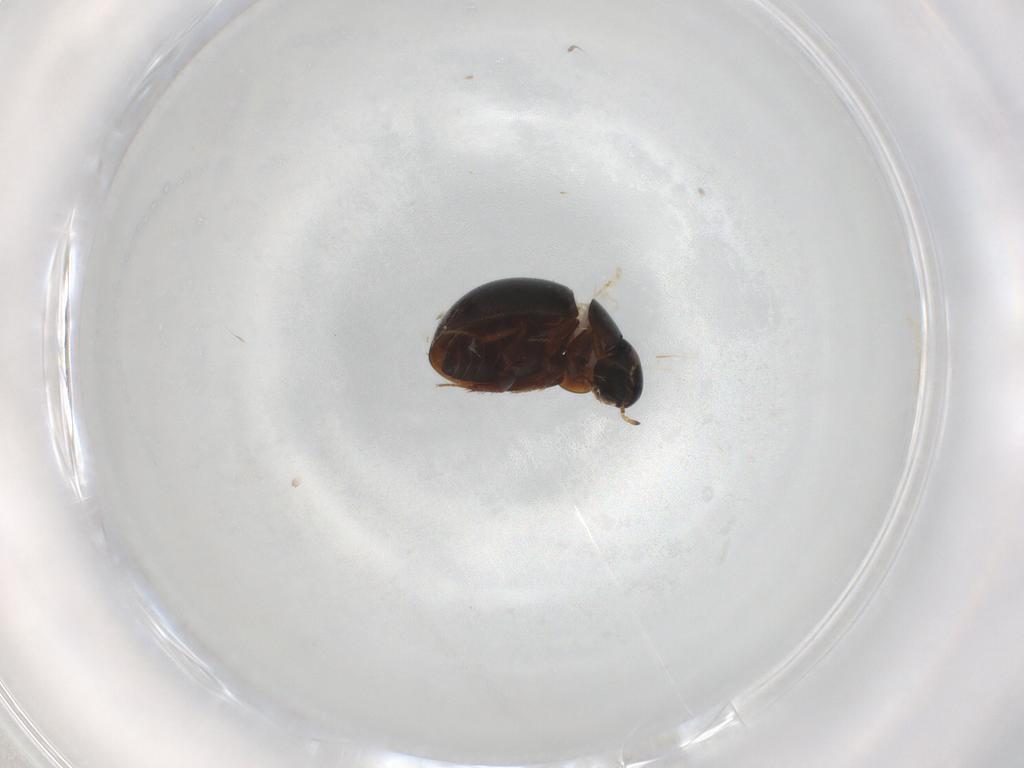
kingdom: Animalia
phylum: Arthropoda
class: Insecta
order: Coleoptera
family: Hydrophilidae
